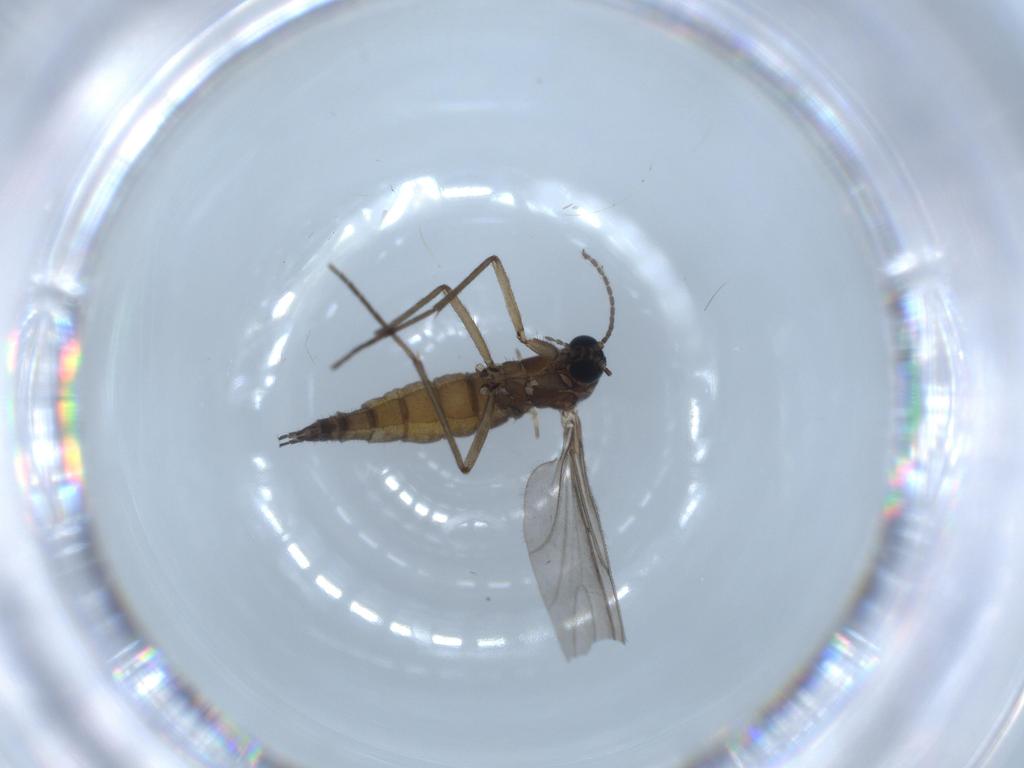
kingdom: Animalia
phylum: Arthropoda
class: Insecta
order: Diptera
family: Sciaridae
